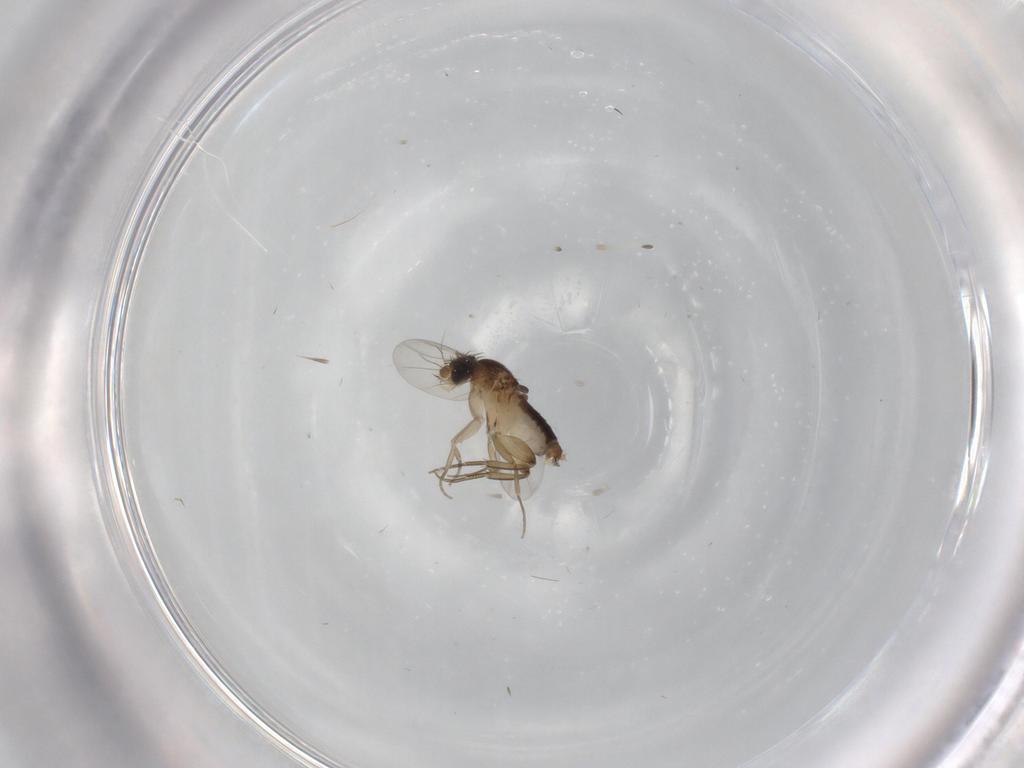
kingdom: Animalia
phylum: Arthropoda
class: Insecta
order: Diptera
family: Phoridae
